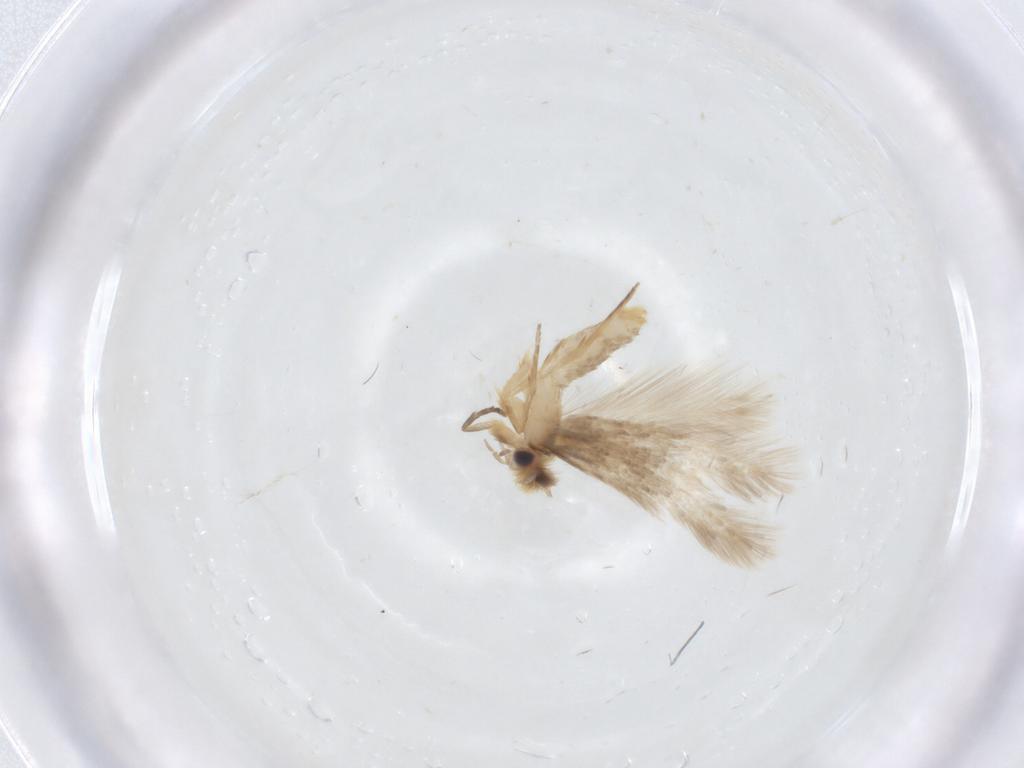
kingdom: Animalia
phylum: Arthropoda
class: Insecta
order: Lepidoptera
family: Nepticulidae
